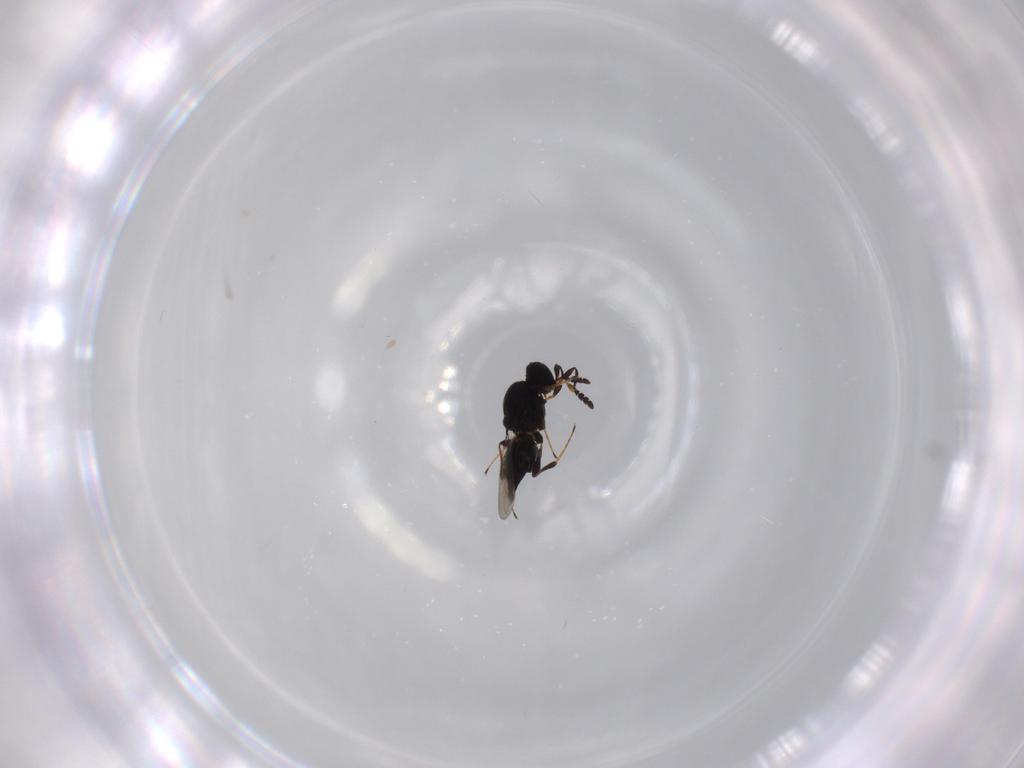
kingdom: Animalia
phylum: Arthropoda
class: Insecta
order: Hymenoptera
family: Platygastridae
